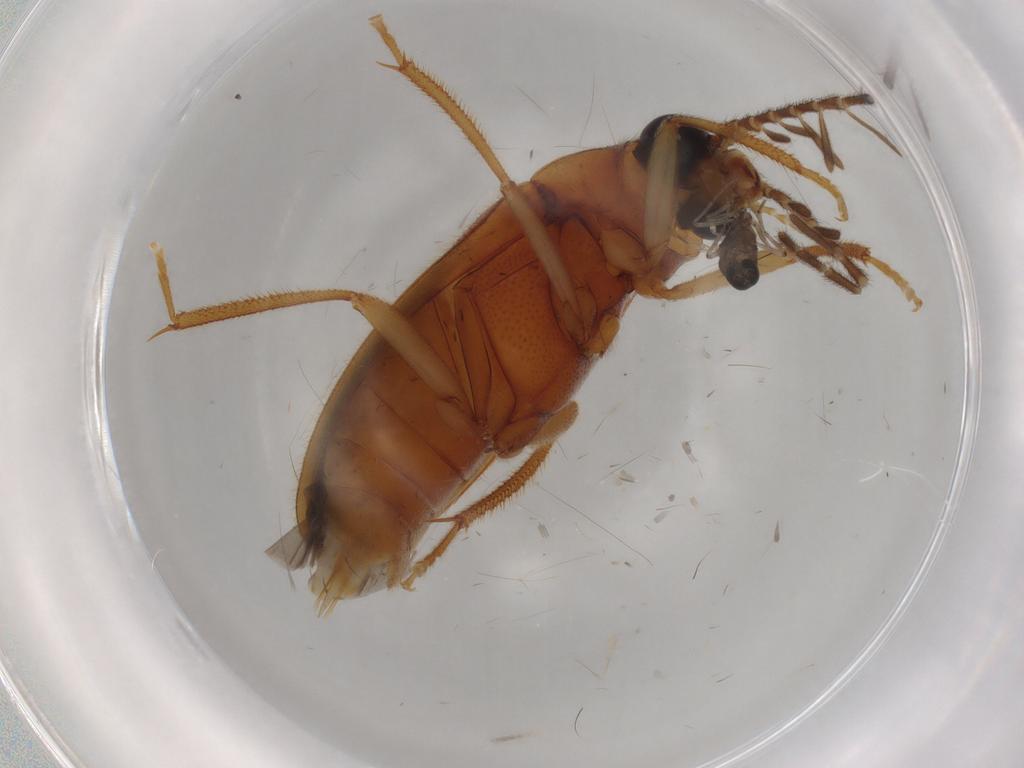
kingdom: Animalia
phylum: Arthropoda
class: Insecta
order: Coleoptera
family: Ptilodactylidae
